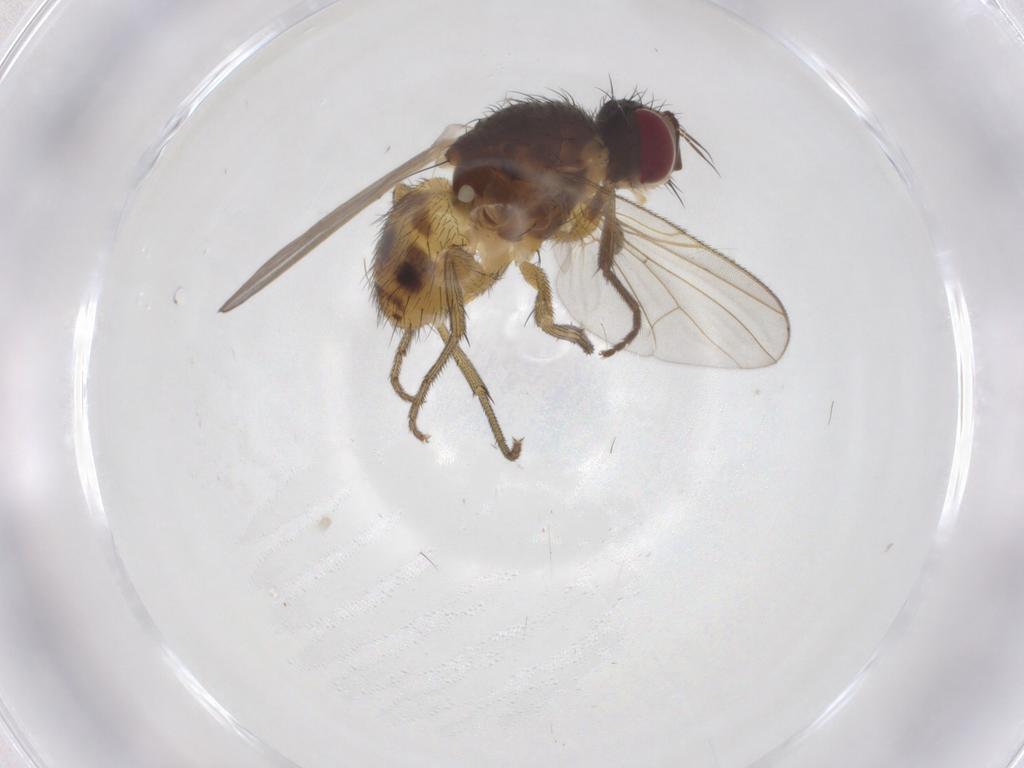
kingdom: Animalia
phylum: Arthropoda
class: Insecta
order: Diptera
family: Muscidae
